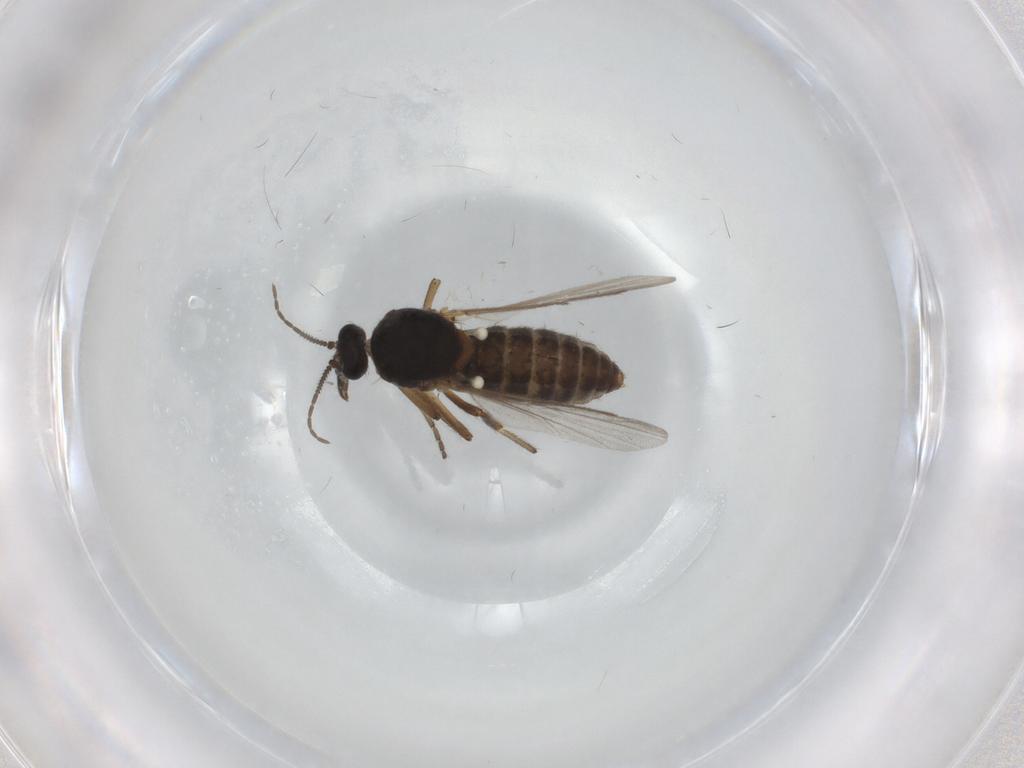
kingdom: Animalia
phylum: Arthropoda
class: Insecta
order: Diptera
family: Ceratopogonidae
